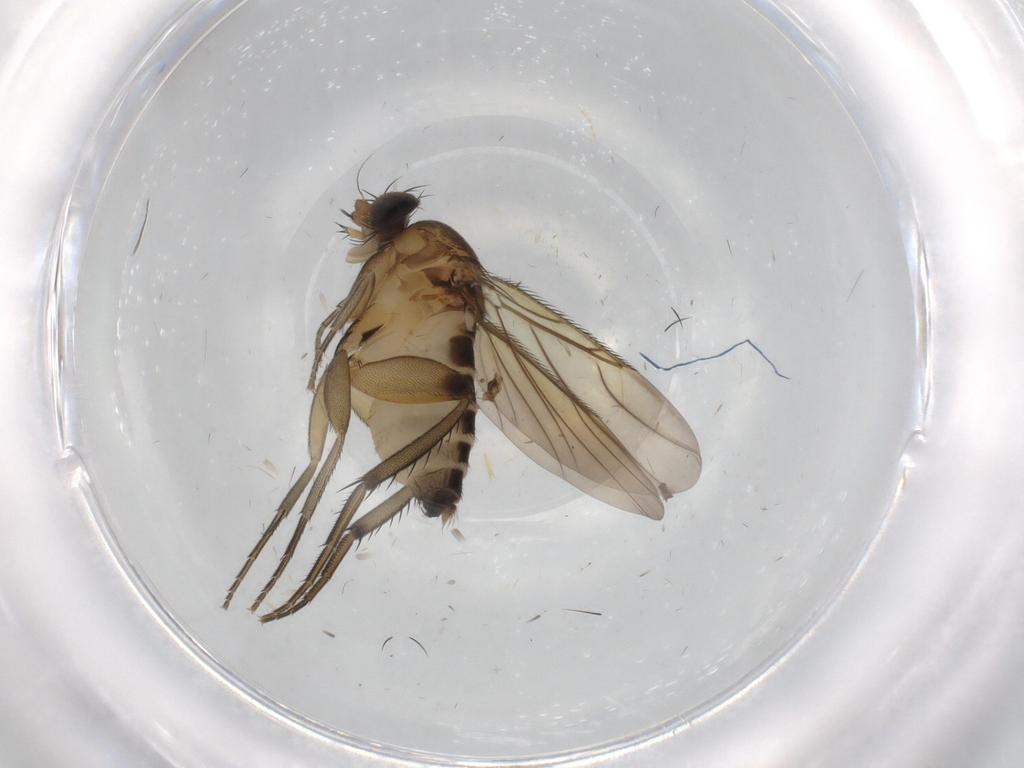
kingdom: Animalia
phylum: Arthropoda
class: Insecta
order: Diptera
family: Phoridae
